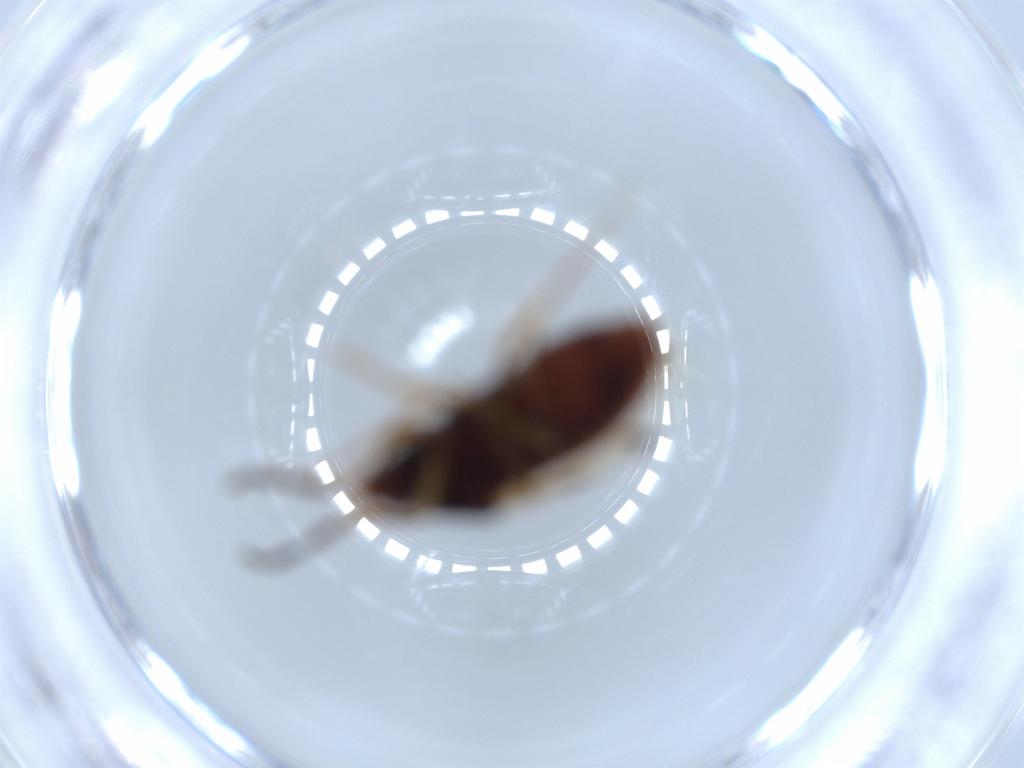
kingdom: Animalia
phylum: Arthropoda
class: Insecta
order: Hemiptera
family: Rhyparochromidae
